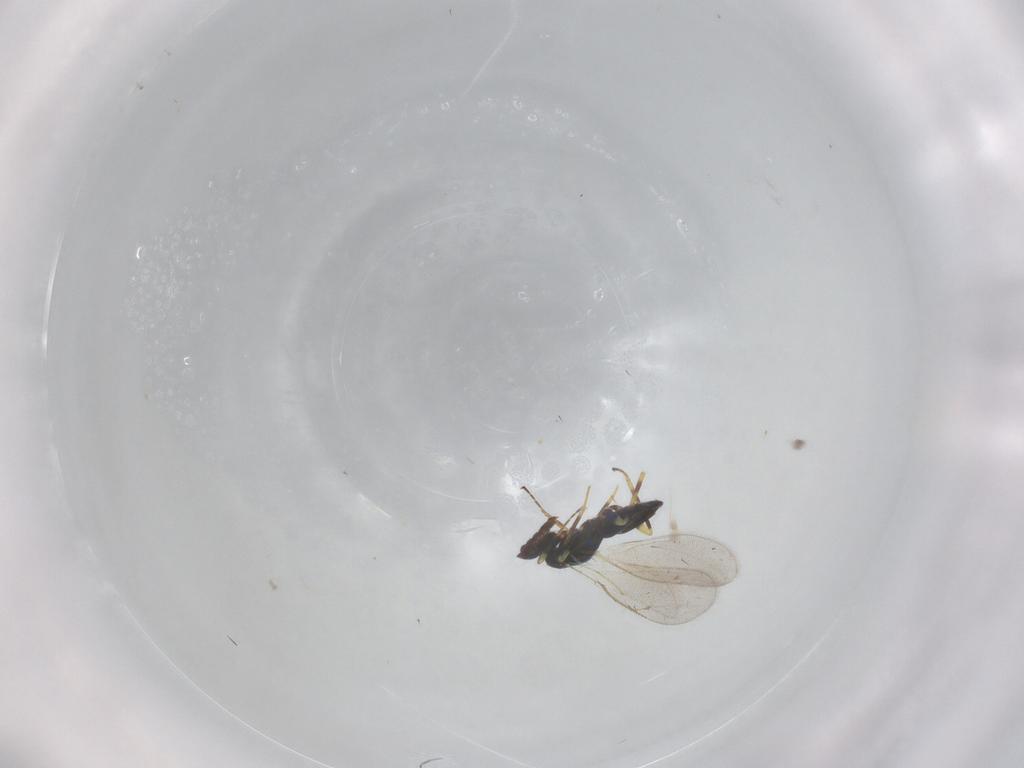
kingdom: Animalia
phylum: Arthropoda
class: Insecta
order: Hymenoptera
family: Eulophidae
